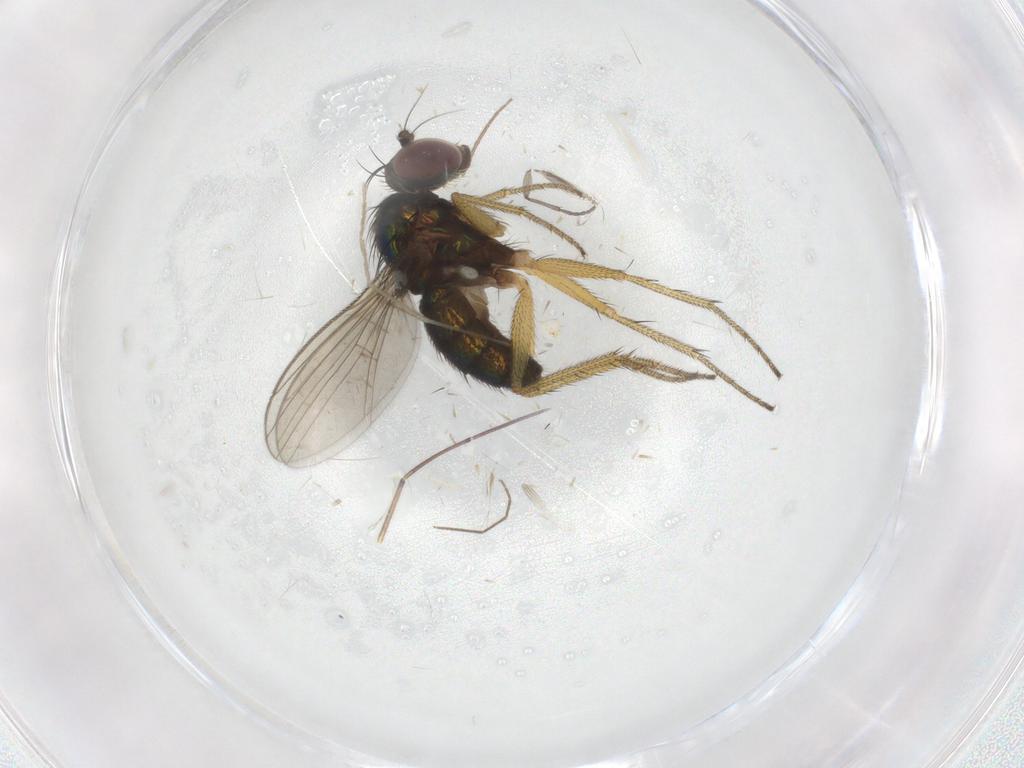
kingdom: Animalia
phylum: Arthropoda
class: Insecta
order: Diptera
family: Sciaridae
